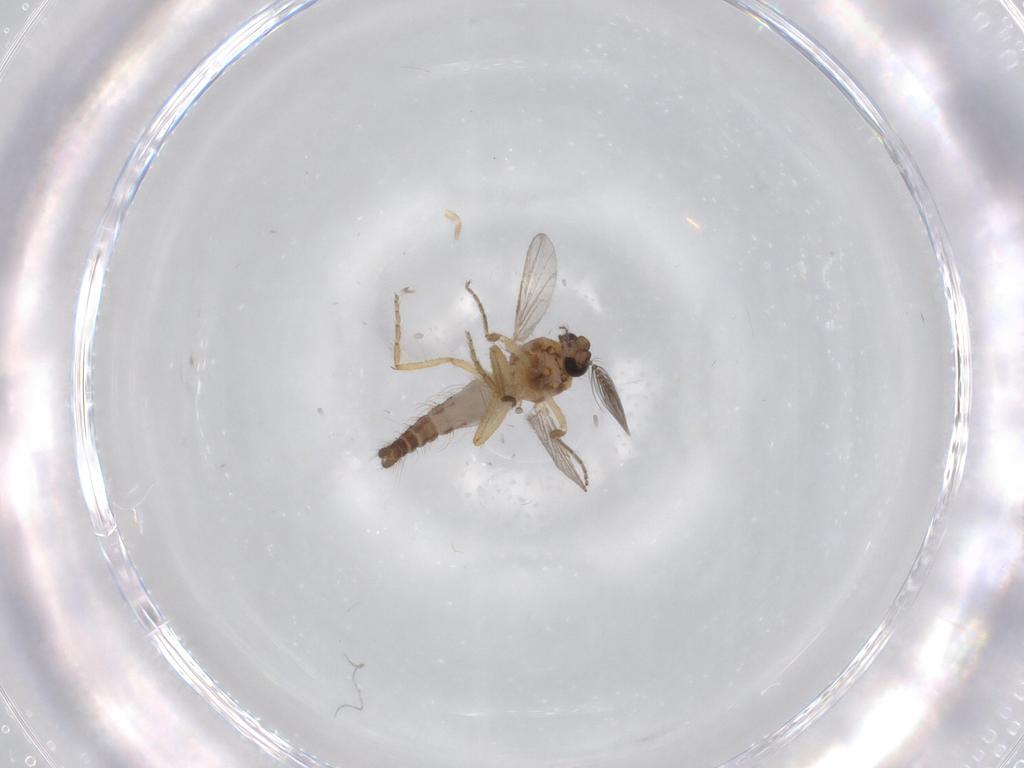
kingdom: Animalia
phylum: Arthropoda
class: Insecta
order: Diptera
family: Ceratopogonidae
